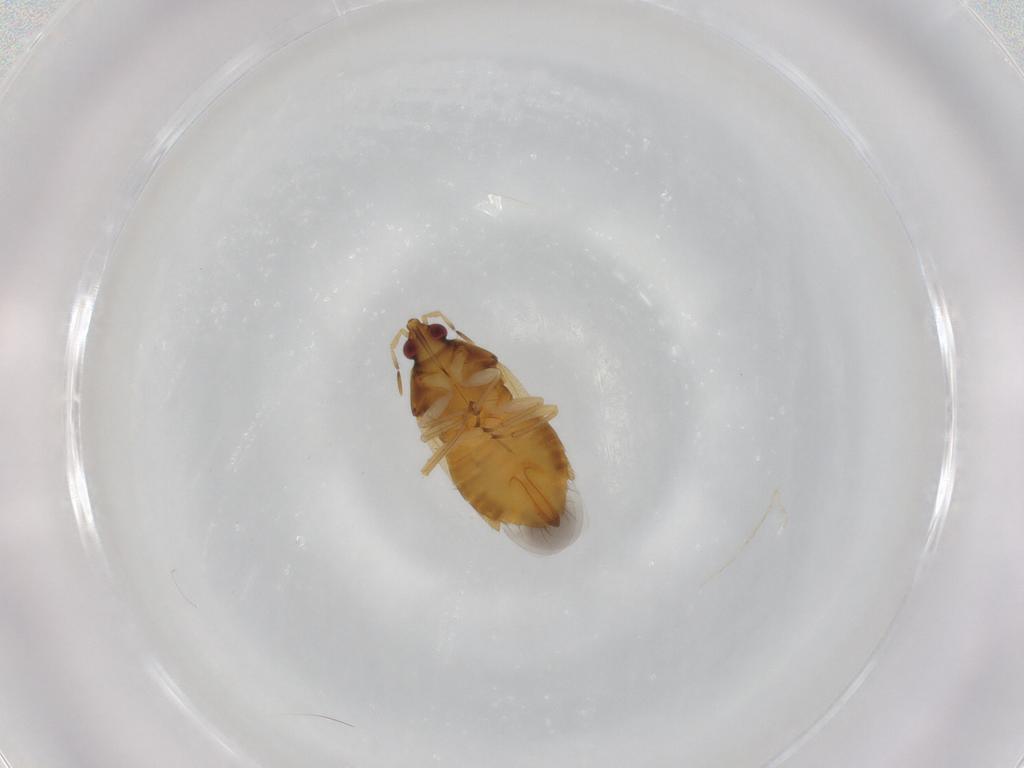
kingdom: Animalia
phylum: Arthropoda
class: Insecta
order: Hemiptera
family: Anthocoridae
